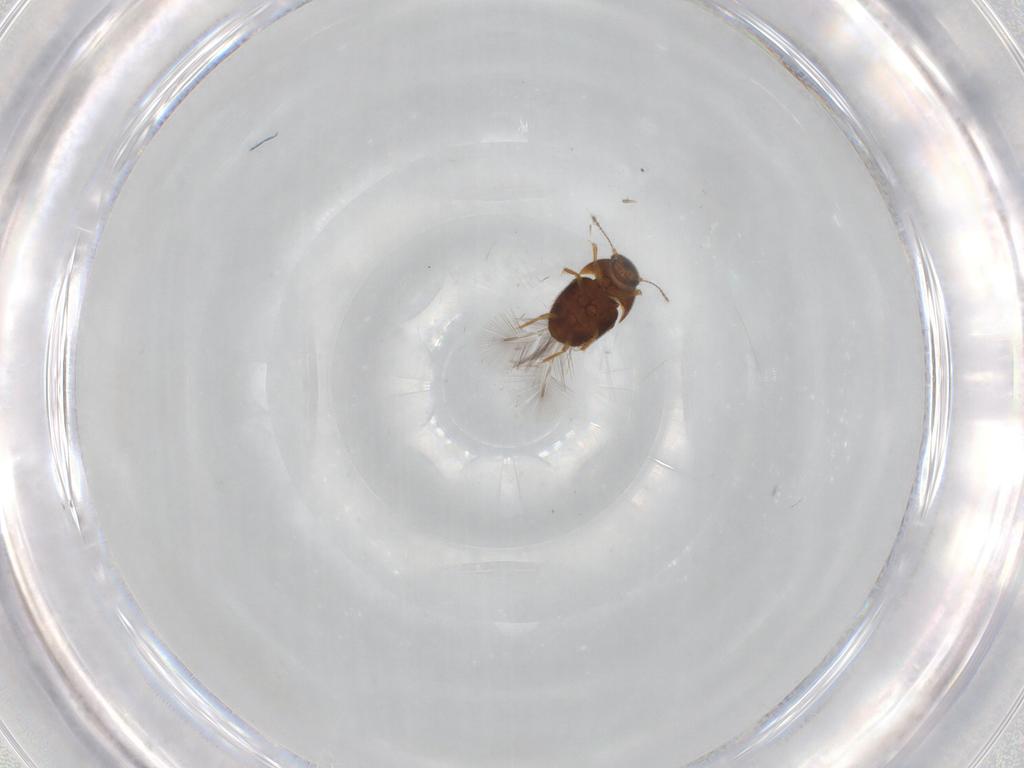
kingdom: Animalia
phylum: Arthropoda
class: Insecta
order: Coleoptera
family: Ptiliidae
